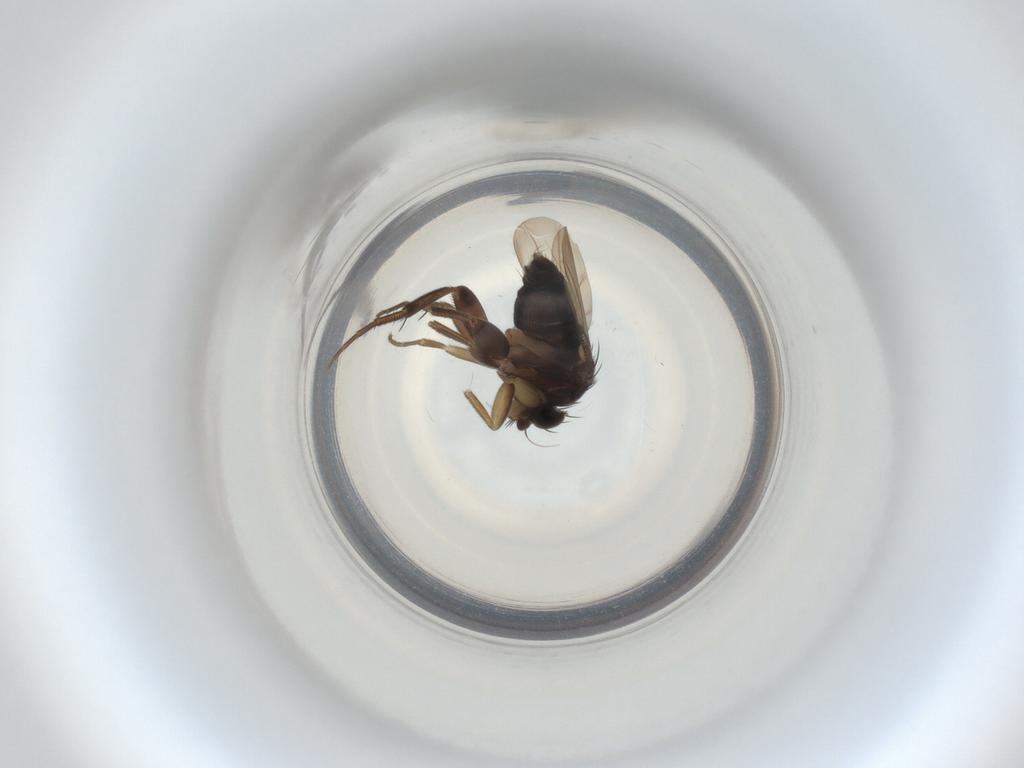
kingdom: Animalia
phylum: Arthropoda
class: Insecta
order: Diptera
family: Phoridae
